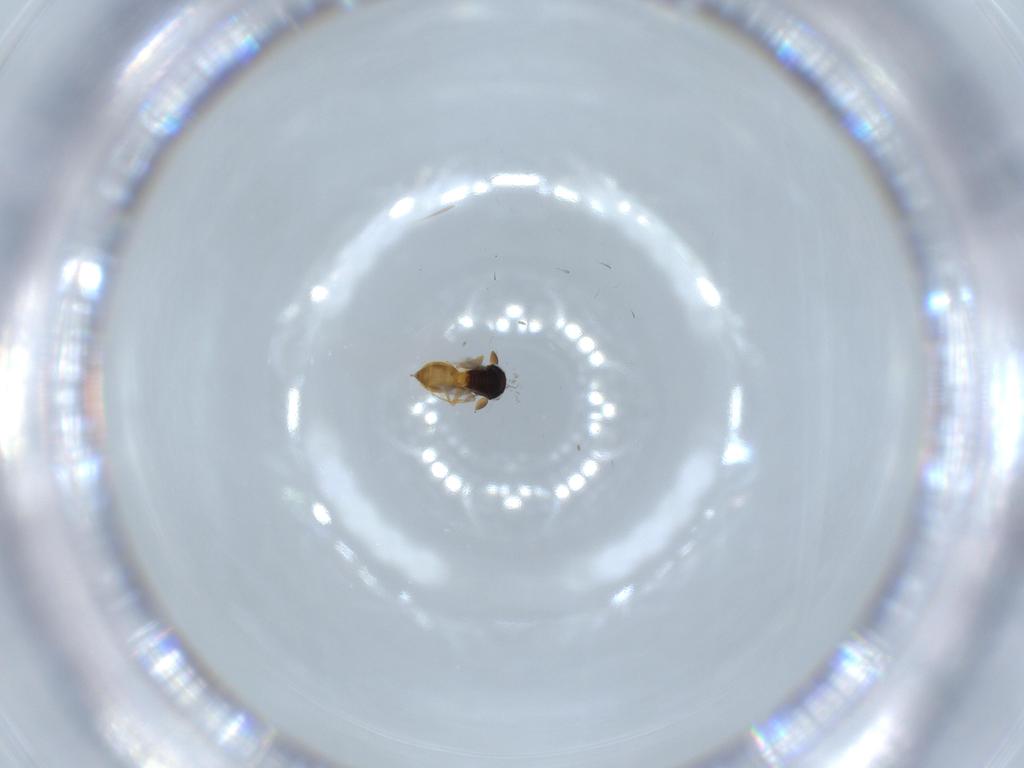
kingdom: Animalia
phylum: Arthropoda
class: Insecta
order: Hymenoptera
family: Scelionidae
